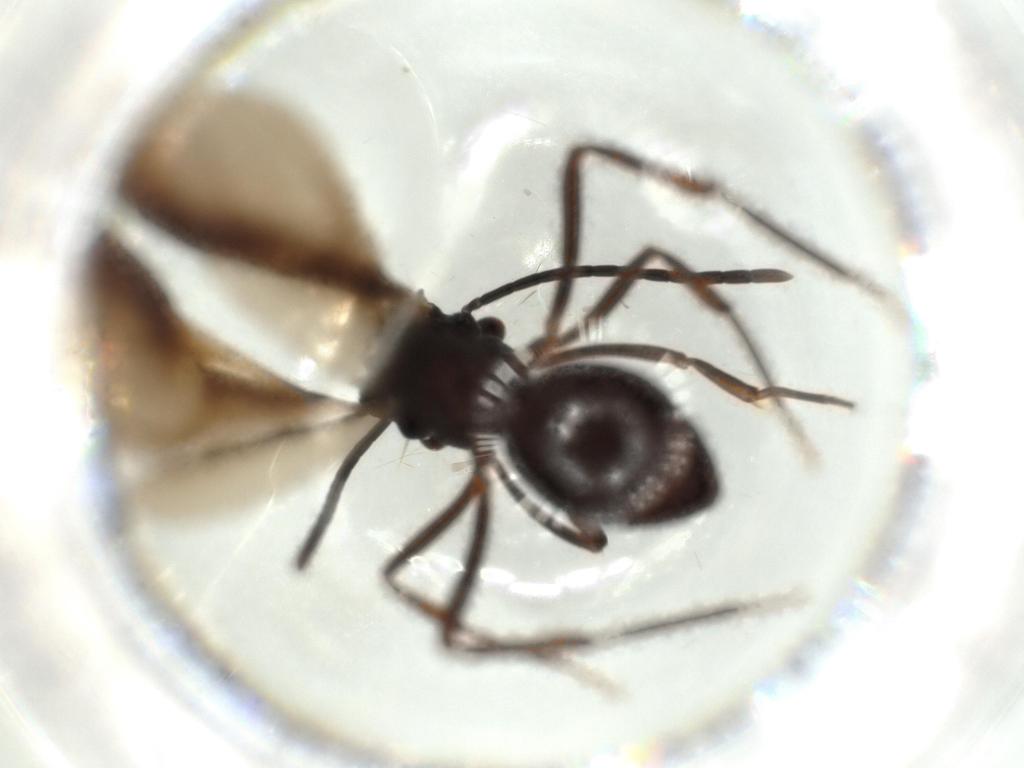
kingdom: Animalia
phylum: Arthropoda
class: Insecta
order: Hymenoptera
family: Formicidae
